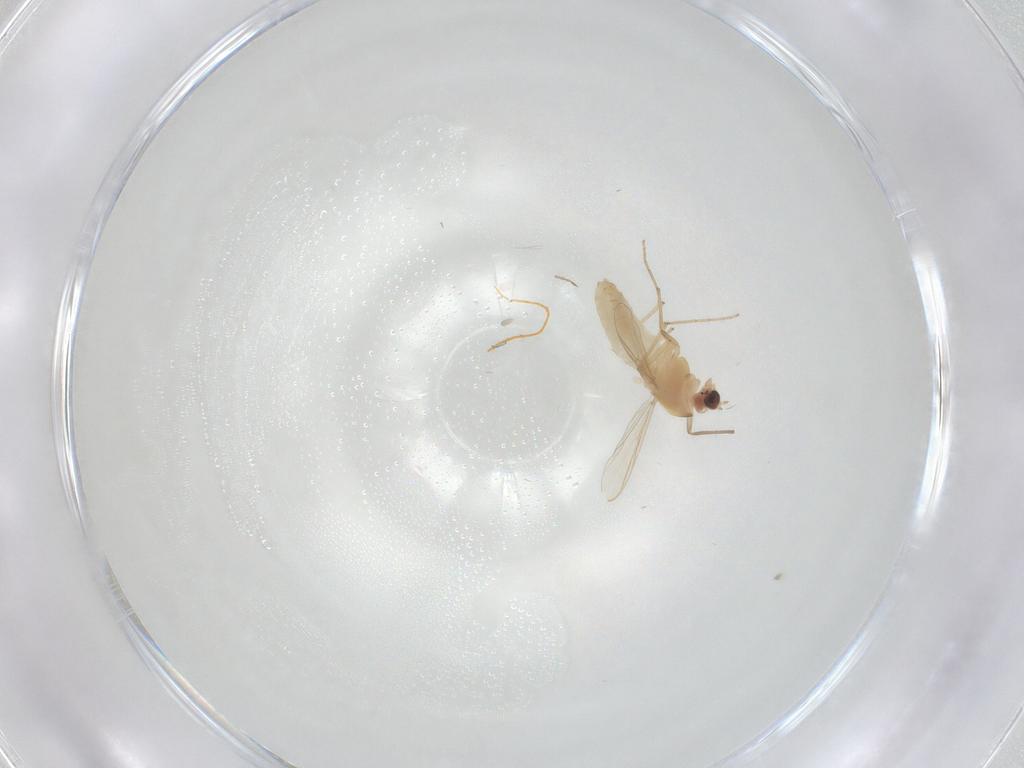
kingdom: Animalia
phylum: Arthropoda
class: Insecta
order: Diptera
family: Chironomidae
